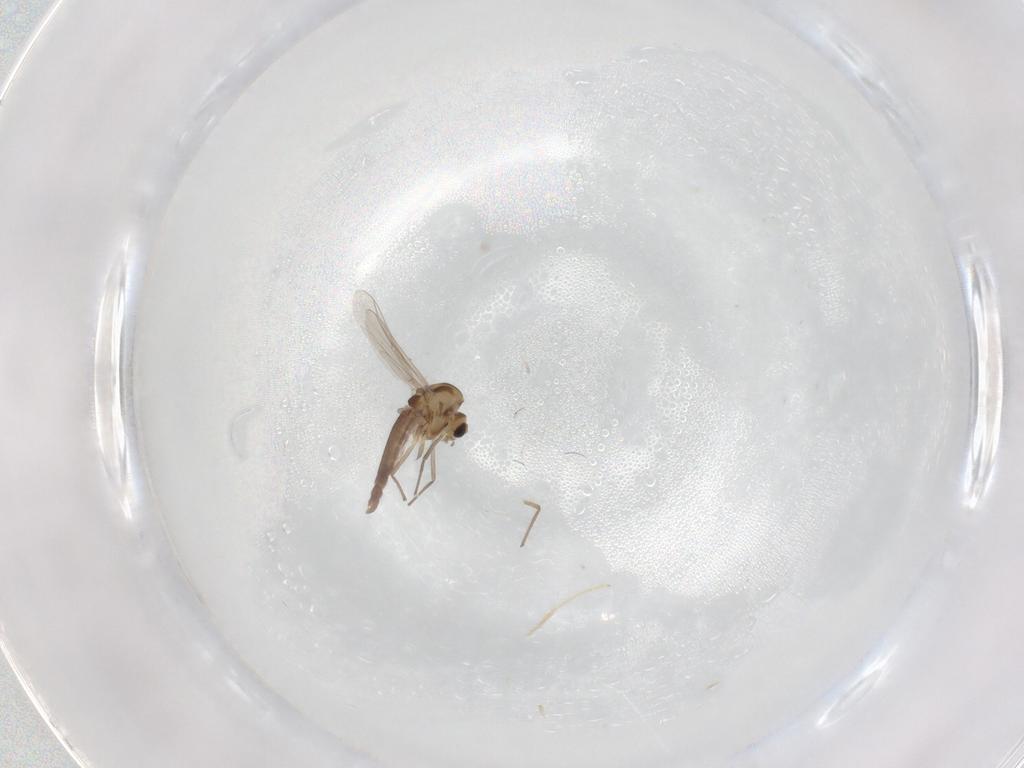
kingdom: Animalia
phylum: Arthropoda
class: Insecta
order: Diptera
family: Chironomidae
